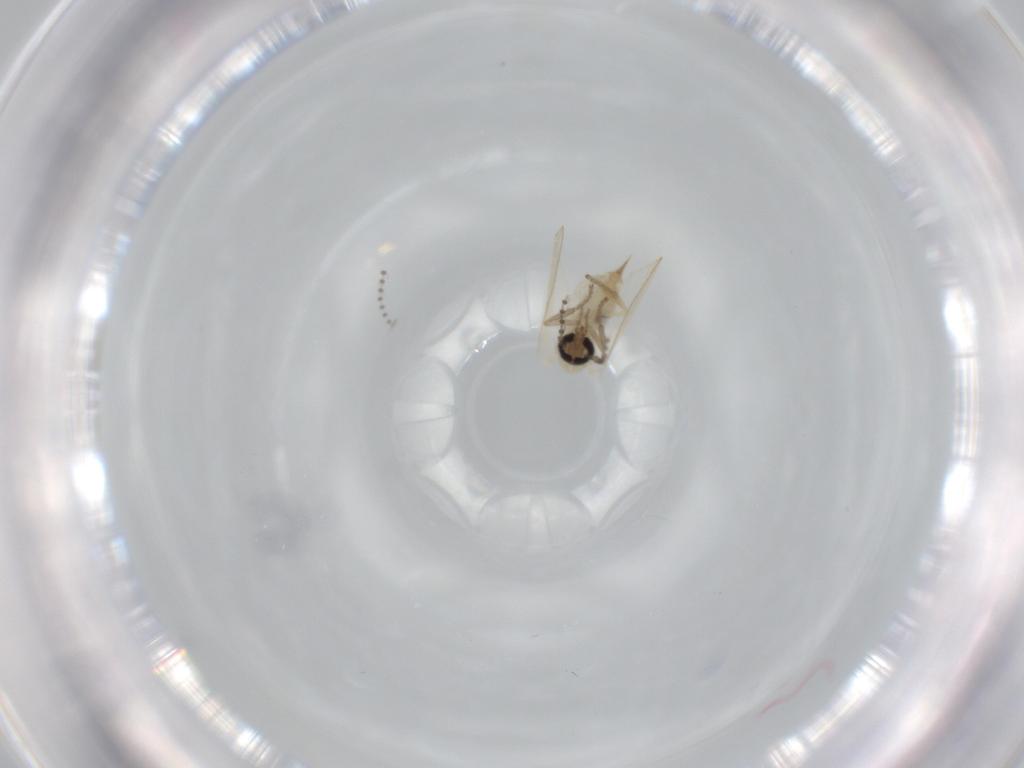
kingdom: Animalia
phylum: Arthropoda
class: Insecta
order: Diptera
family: Psychodidae
